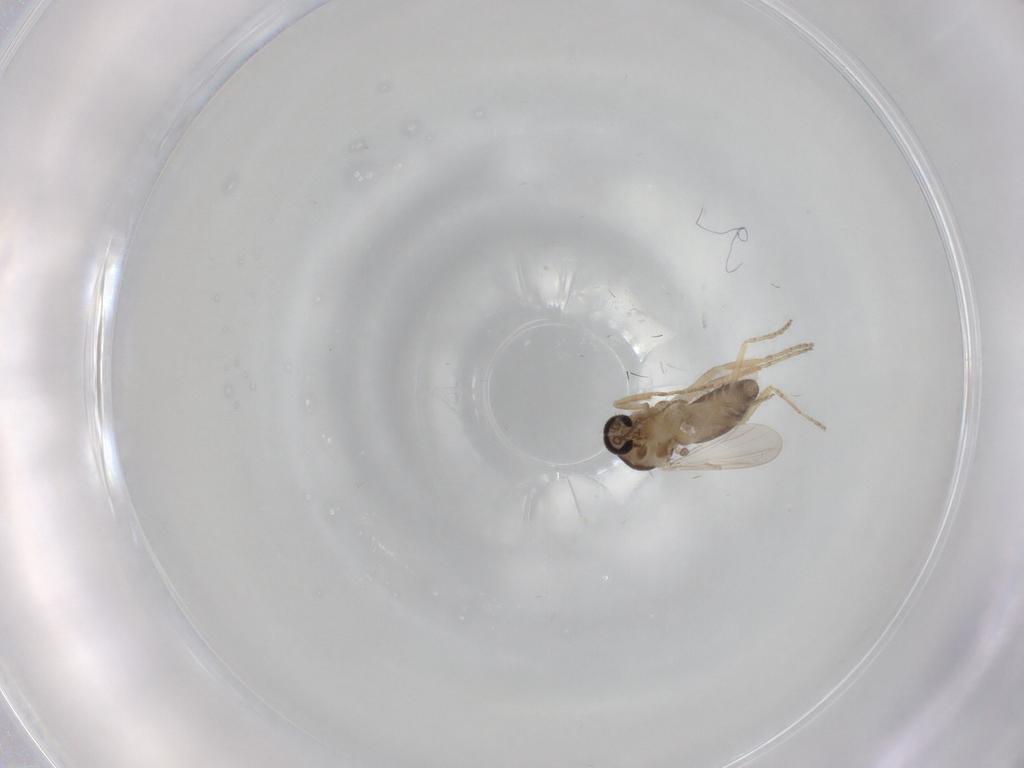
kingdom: Animalia
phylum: Arthropoda
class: Insecta
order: Diptera
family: Ceratopogonidae
